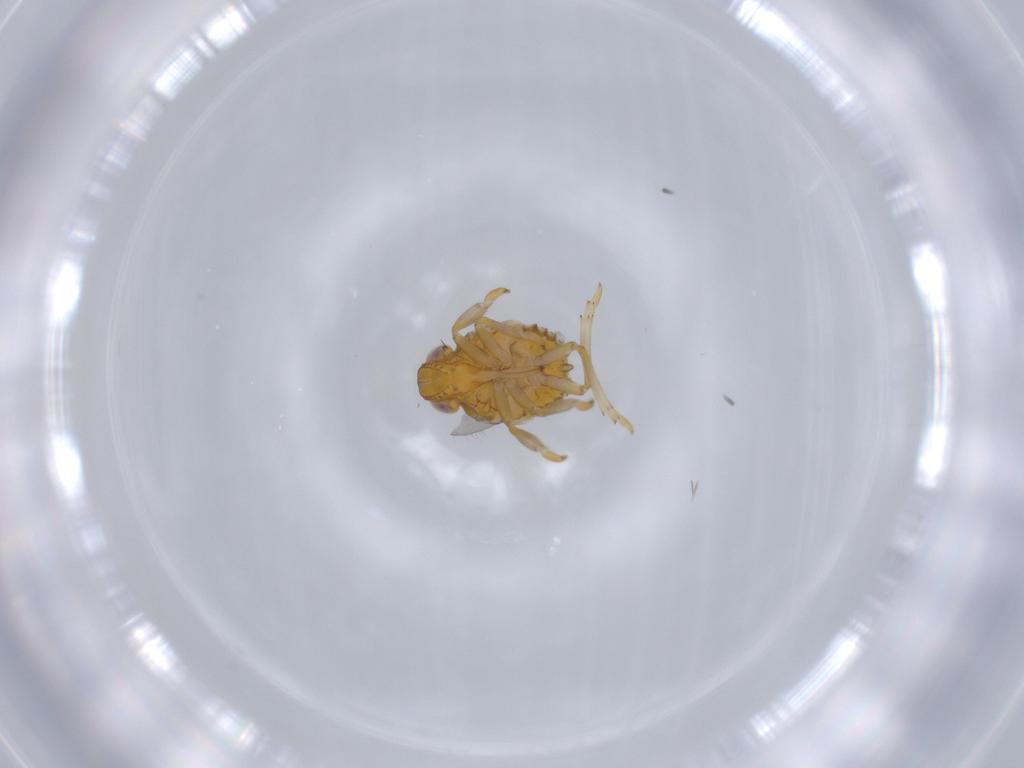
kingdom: Animalia
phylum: Arthropoda
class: Insecta
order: Hemiptera
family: Issidae
